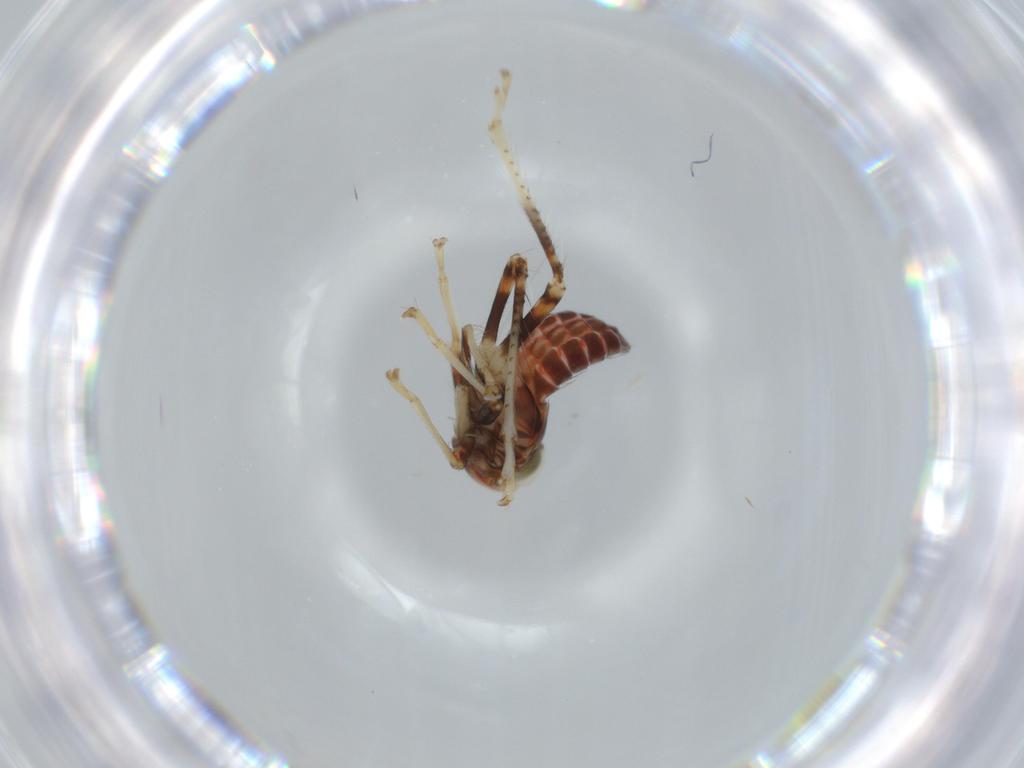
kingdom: Animalia
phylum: Arthropoda
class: Insecta
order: Hemiptera
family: Cicadellidae
